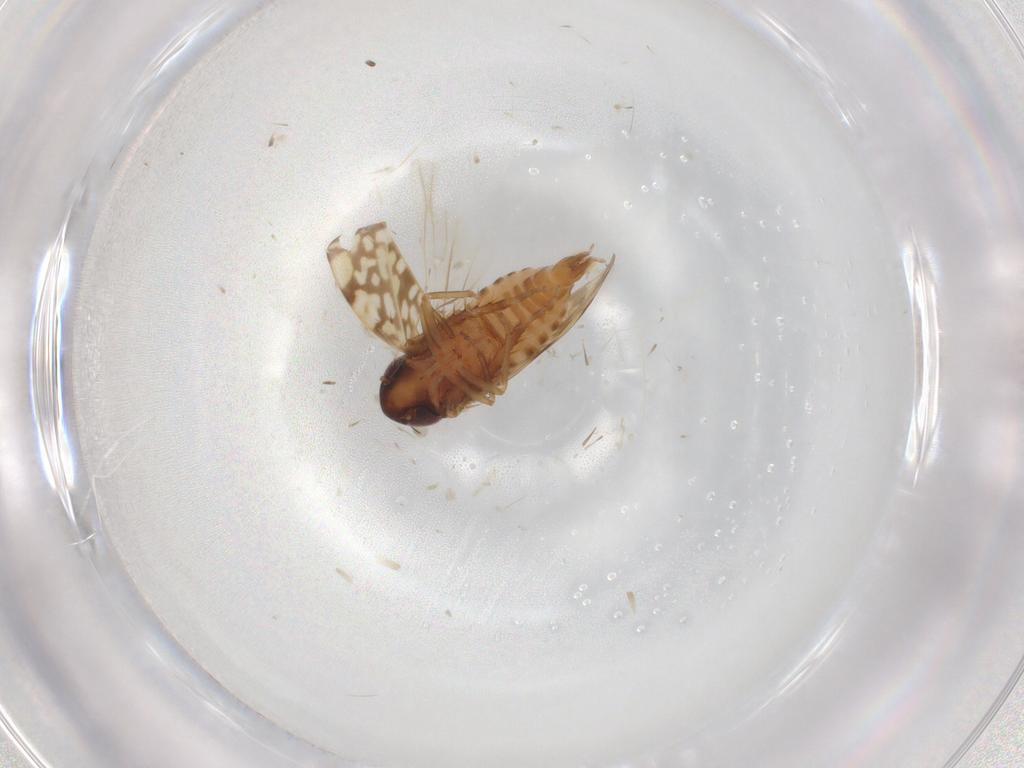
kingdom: Animalia
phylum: Arthropoda
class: Insecta
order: Hemiptera
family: Cicadellidae
